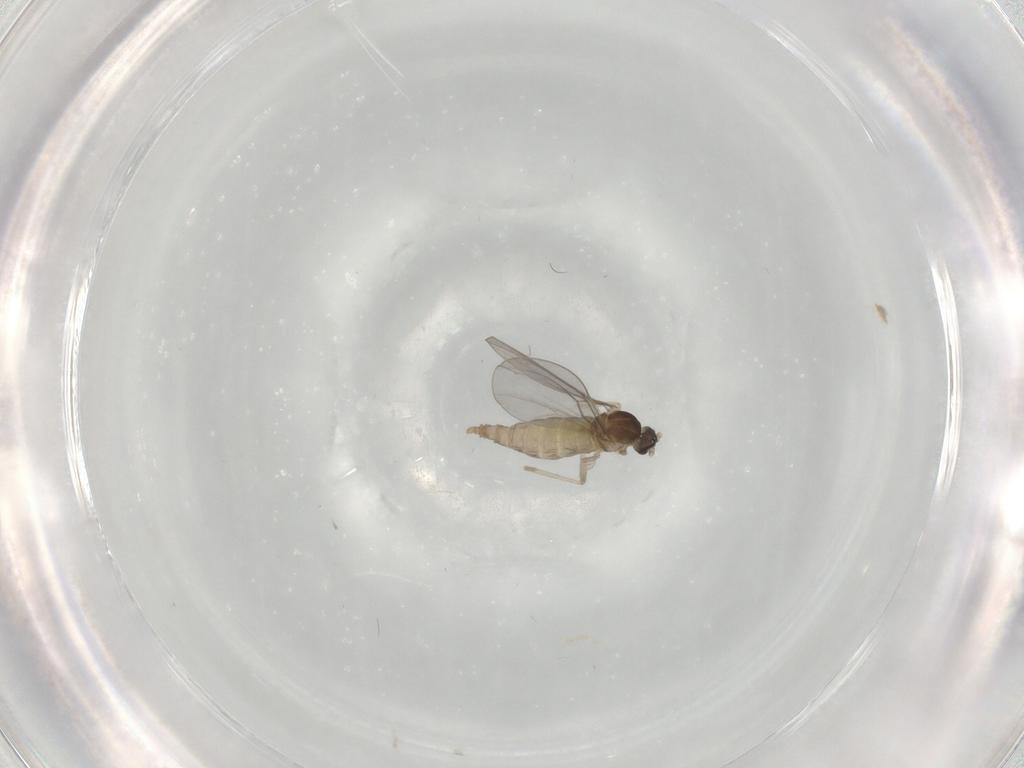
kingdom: Animalia
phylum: Arthropoda
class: Insecta
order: Diptera
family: Cecidomyiidae
